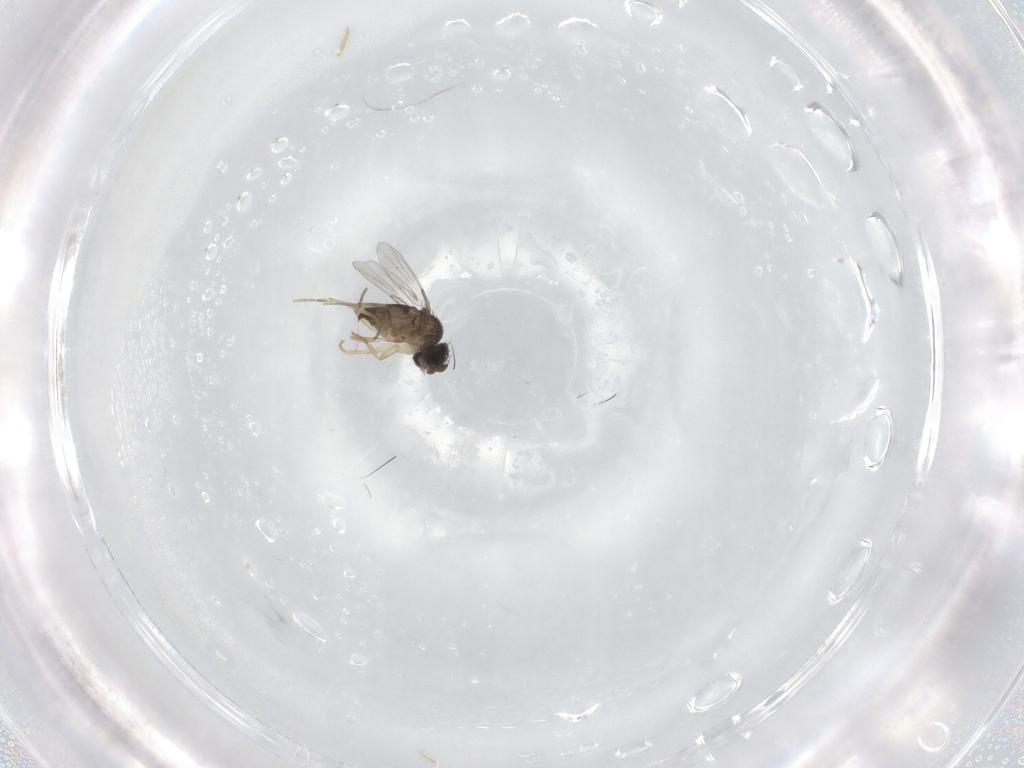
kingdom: Animalia
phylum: Arthropoda
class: Insecta
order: Diptera
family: Phoridae
